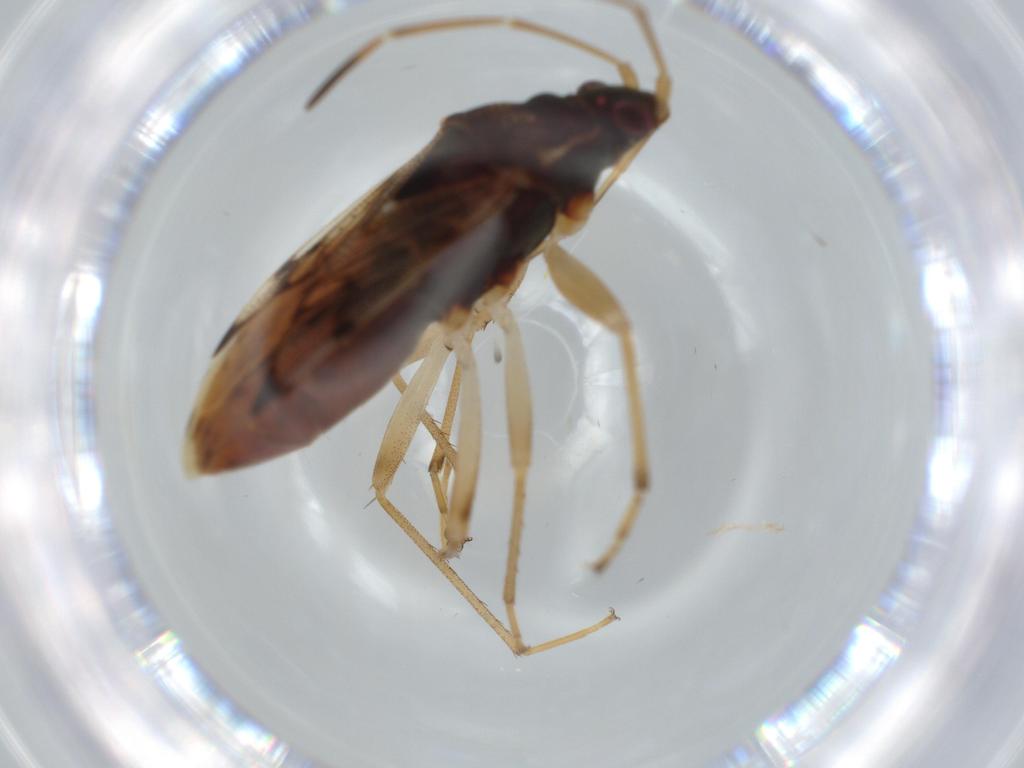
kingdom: Animalia
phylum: Arthropoda
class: Insecta
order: Hemiptera
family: Rhyparochromidae
